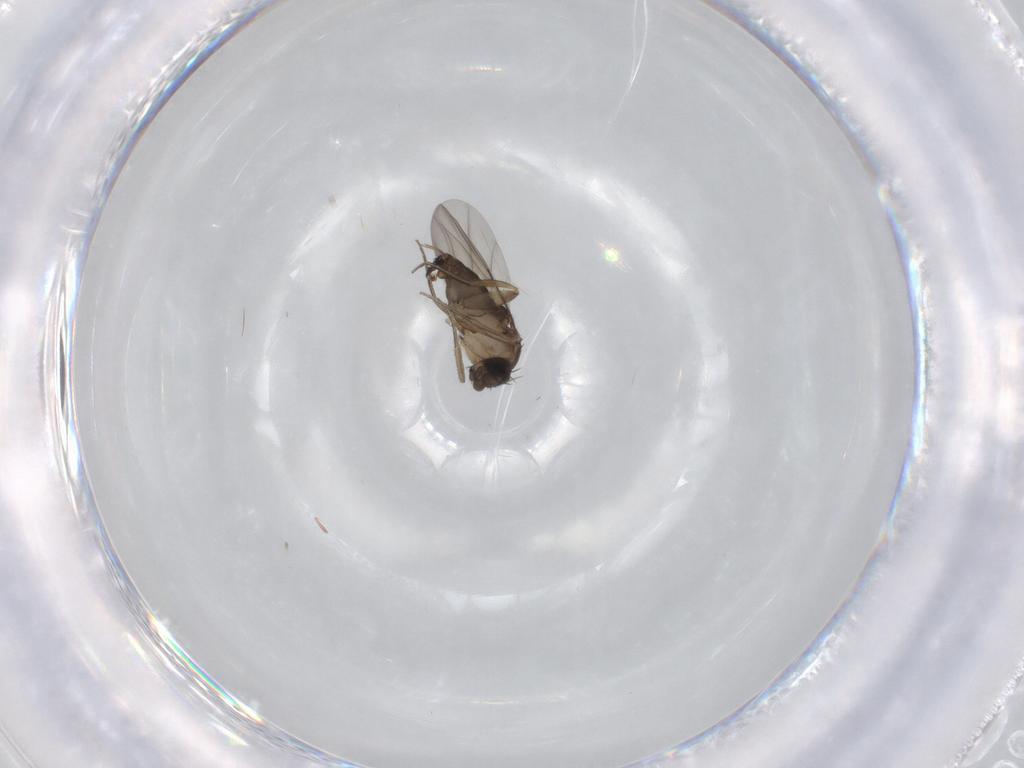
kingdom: Animalia
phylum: Arthropoda
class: Insecta
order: Diptera
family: Phoridae
